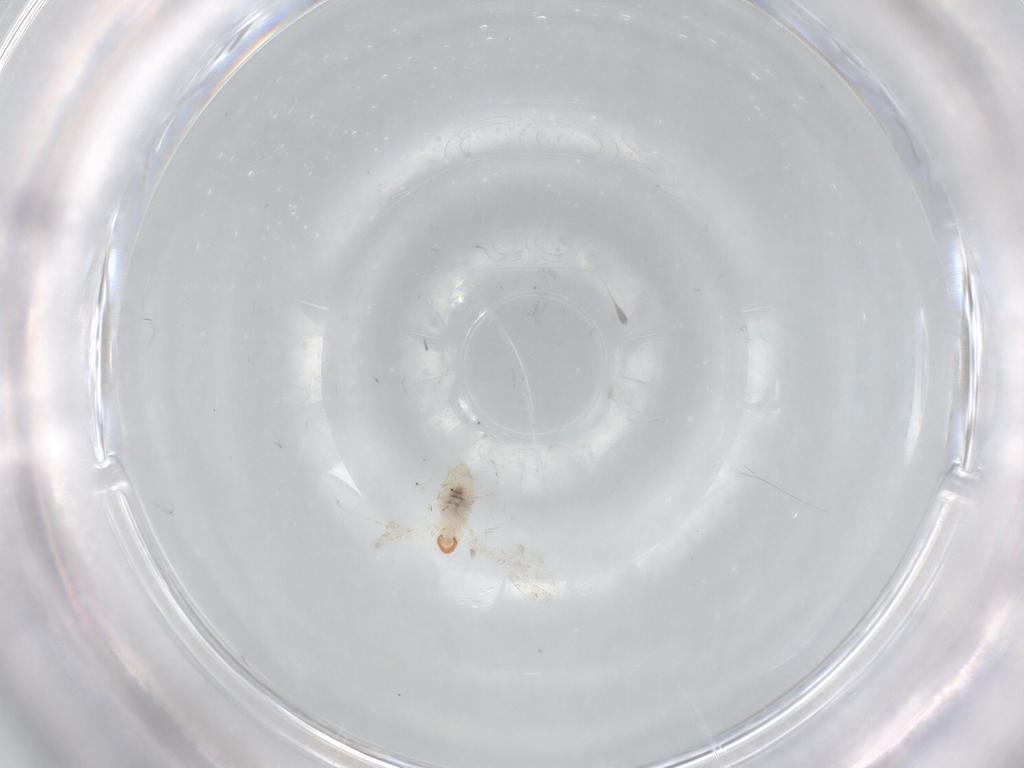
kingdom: Animalia
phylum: Arthropoda
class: Insecta
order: Diptera
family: Cecidomyiidae
